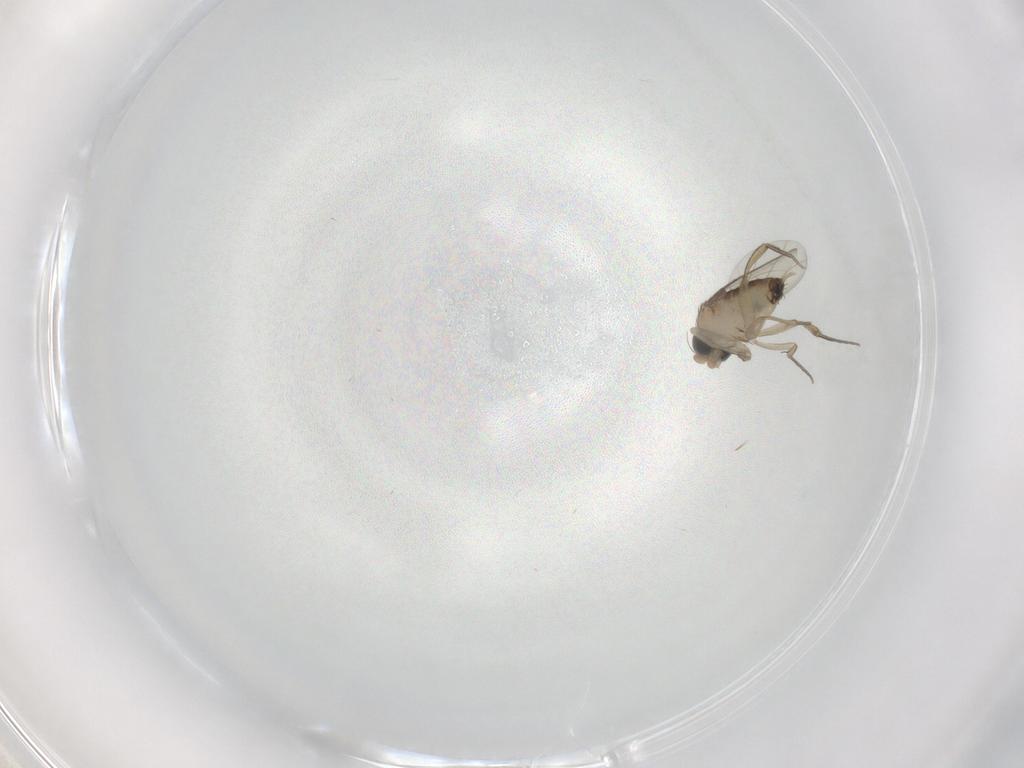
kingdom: Animalia
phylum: Arthropoda
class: Insecta
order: Diptera
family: Phoridae
